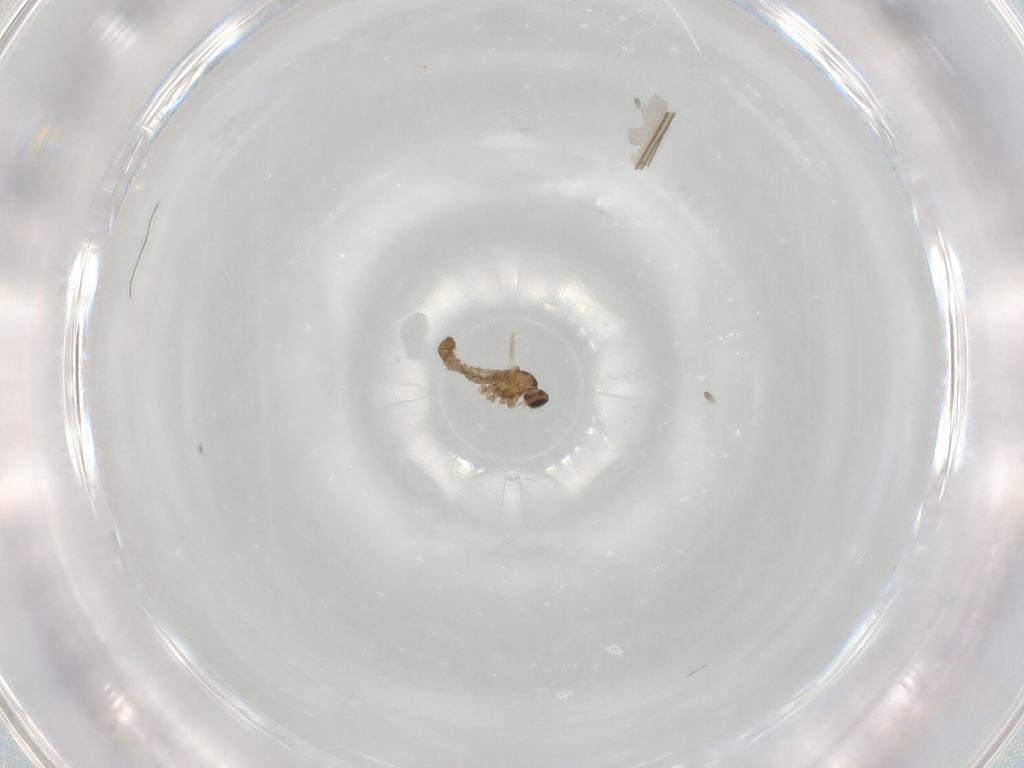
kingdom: Animalia
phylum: Arthropoda
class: Insecta
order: Diptera
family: Cecidomyiidae
